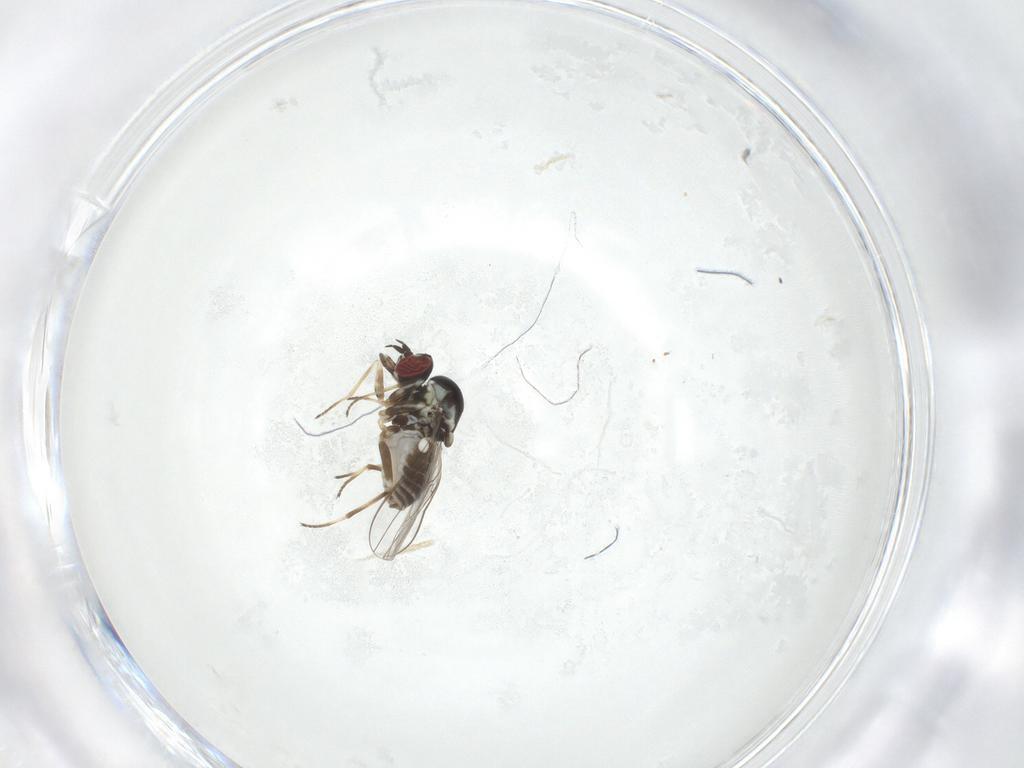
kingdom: Animalia
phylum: Arthropoda
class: Insecta
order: Diptera
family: Bombyliidae
